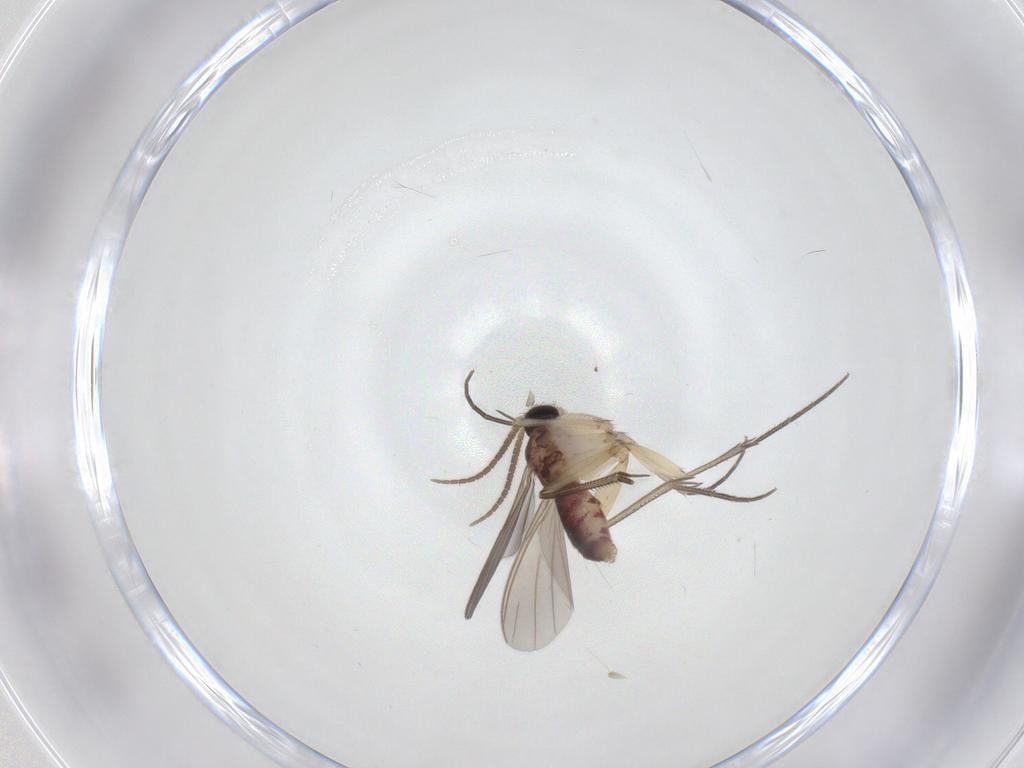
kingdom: Animalia
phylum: Arthropoda
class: Insecta
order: Diptera
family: Mycetophilidae
